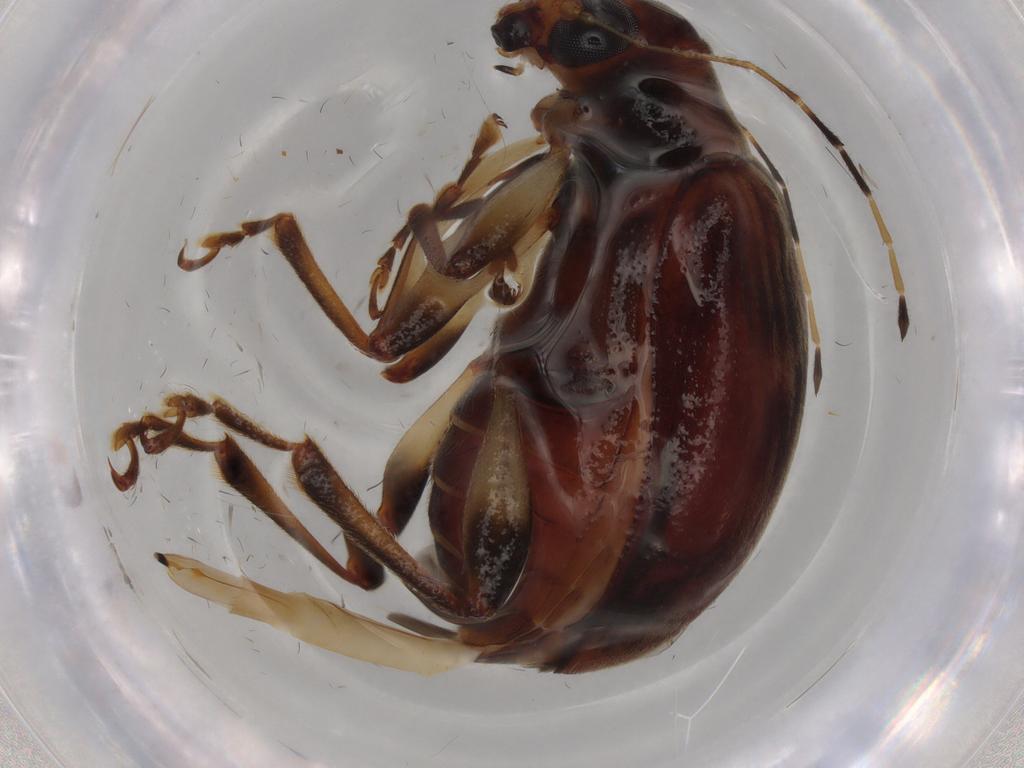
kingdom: Animalia
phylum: Arthropoda
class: Insecta
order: Coleoptera
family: Chrysomelidae
